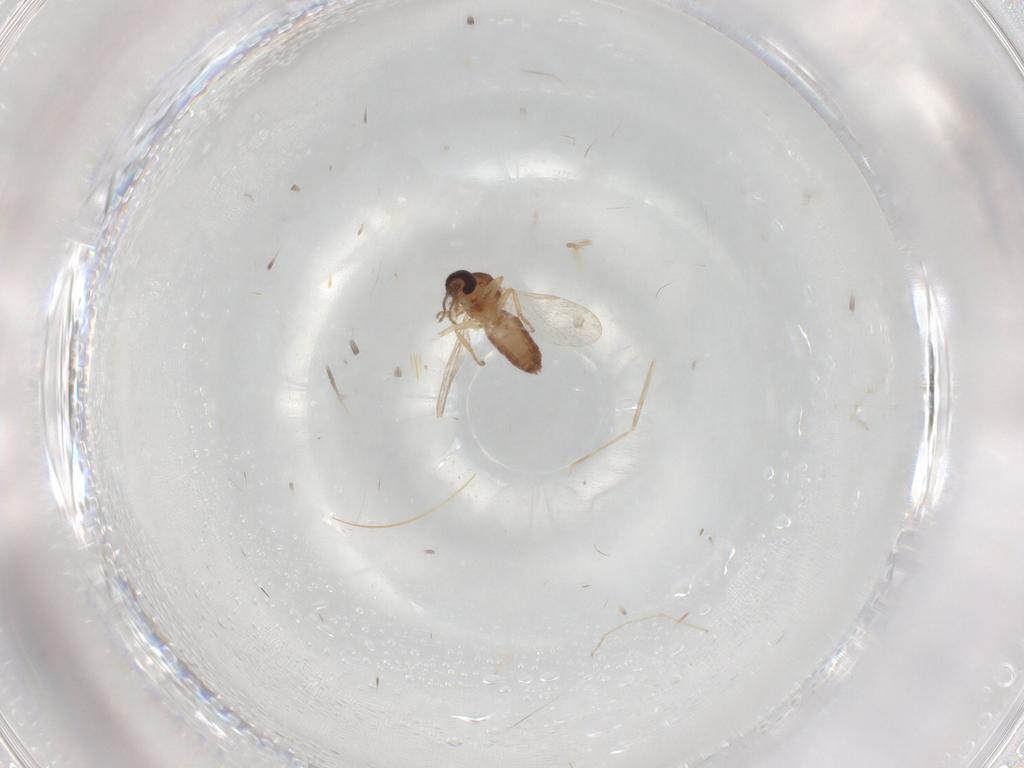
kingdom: Animalia
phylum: Arthropoda
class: Insecta
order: Diptera
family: Ceratopogonidae
